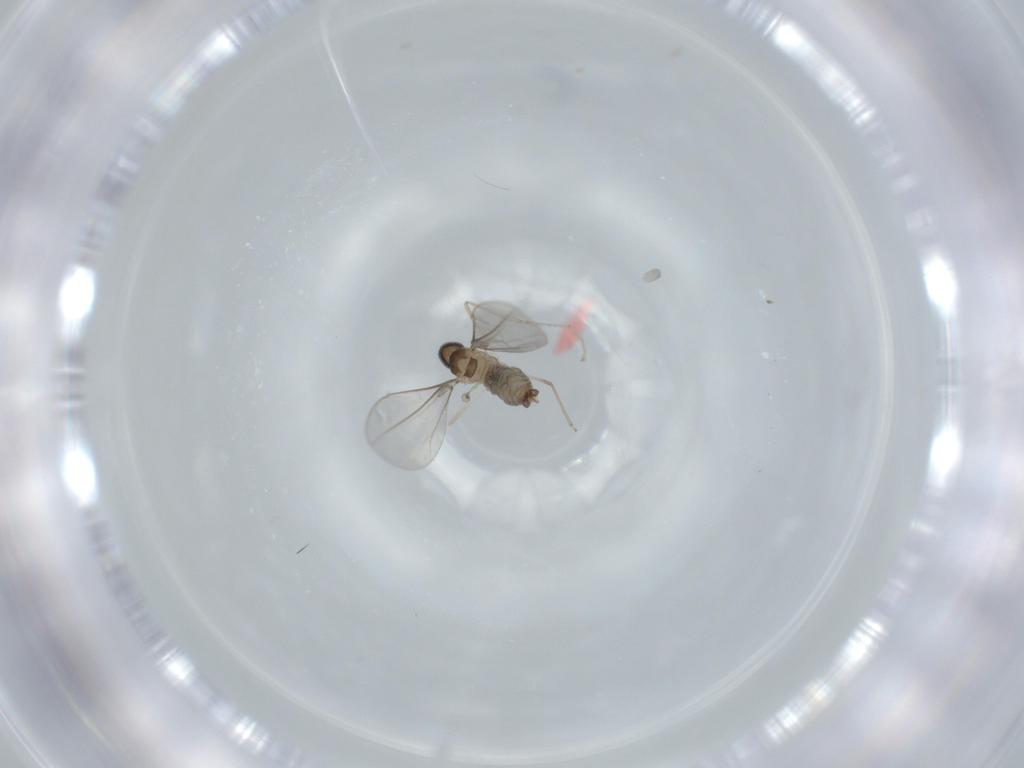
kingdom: Animalia
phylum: Arthropoda
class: Insecta
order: Diptera
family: Cecidomyiidae
